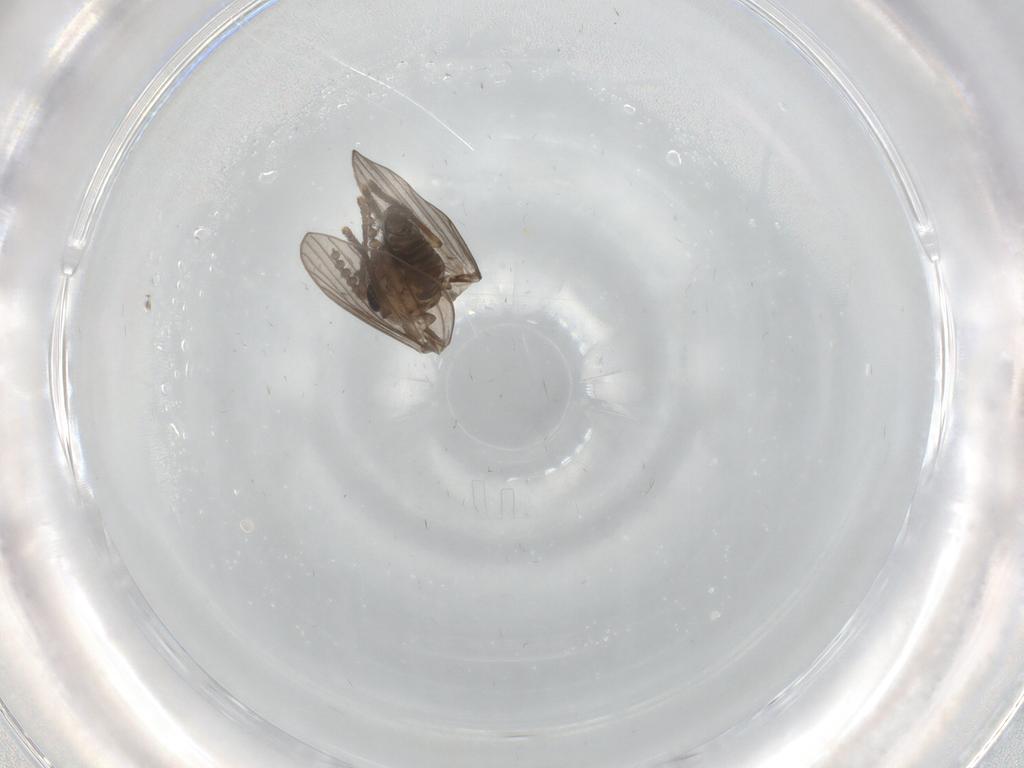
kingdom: Animalia
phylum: Arthropoda
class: Insecta
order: Diptera
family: Psychodidae
